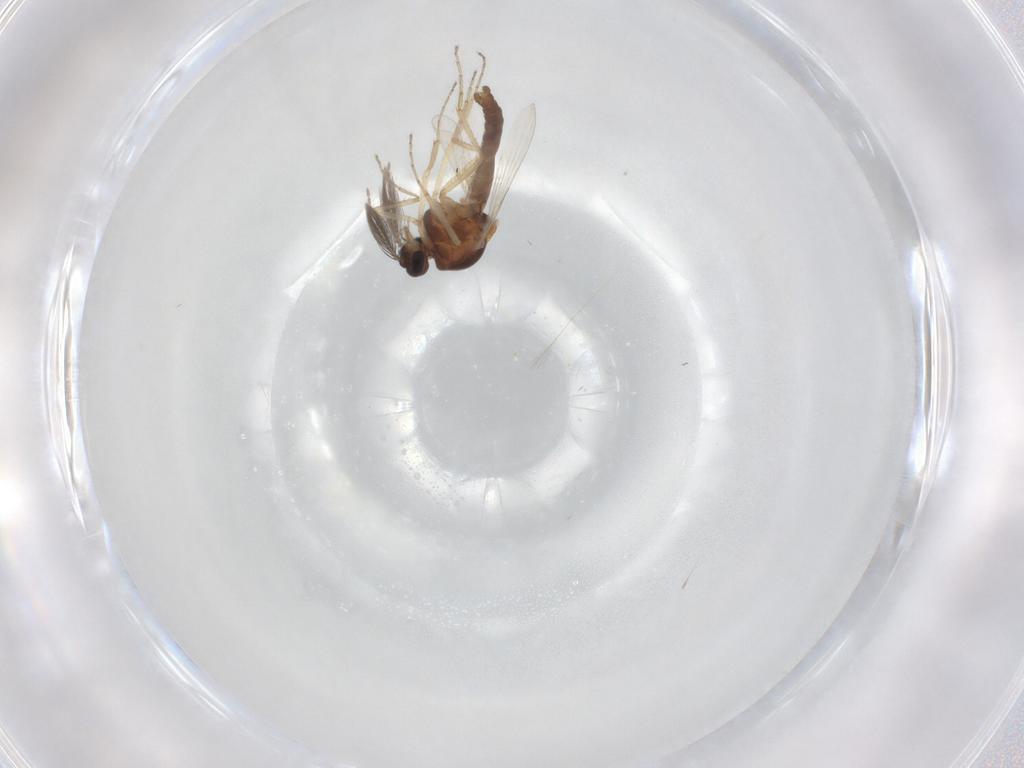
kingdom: Animalia
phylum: Arthropoda
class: Insecta
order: Diptera
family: Ceratopogonidae
